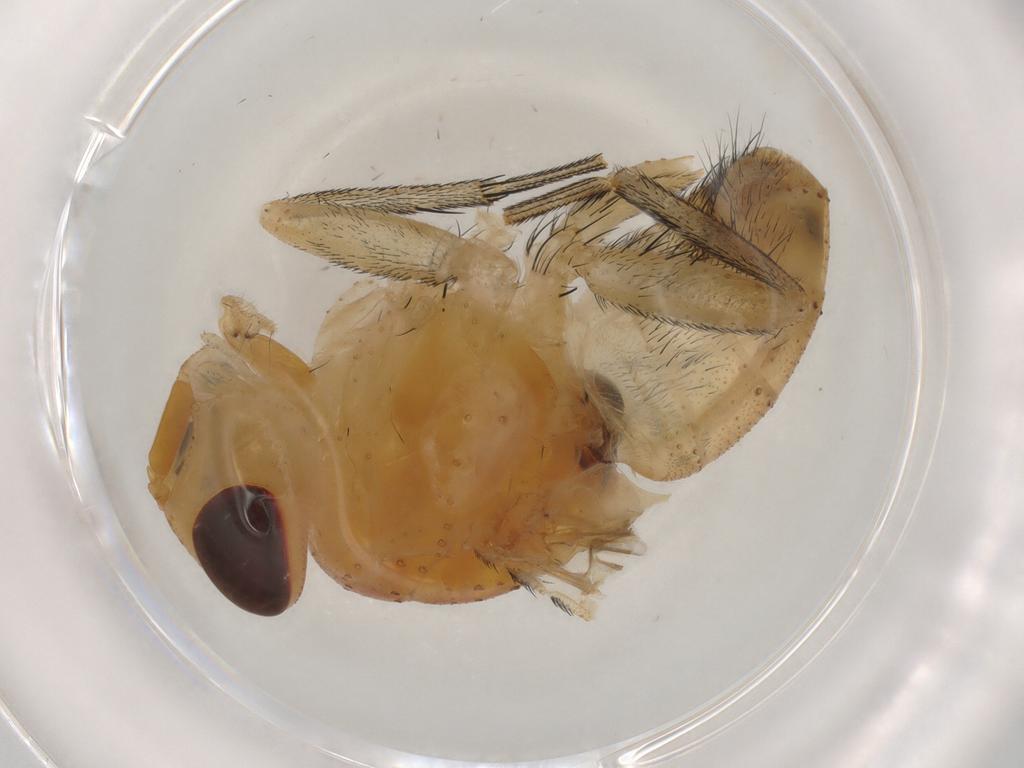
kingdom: Animalia
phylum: Arthropoda
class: Insecta
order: Diptera
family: Calliphoridae
